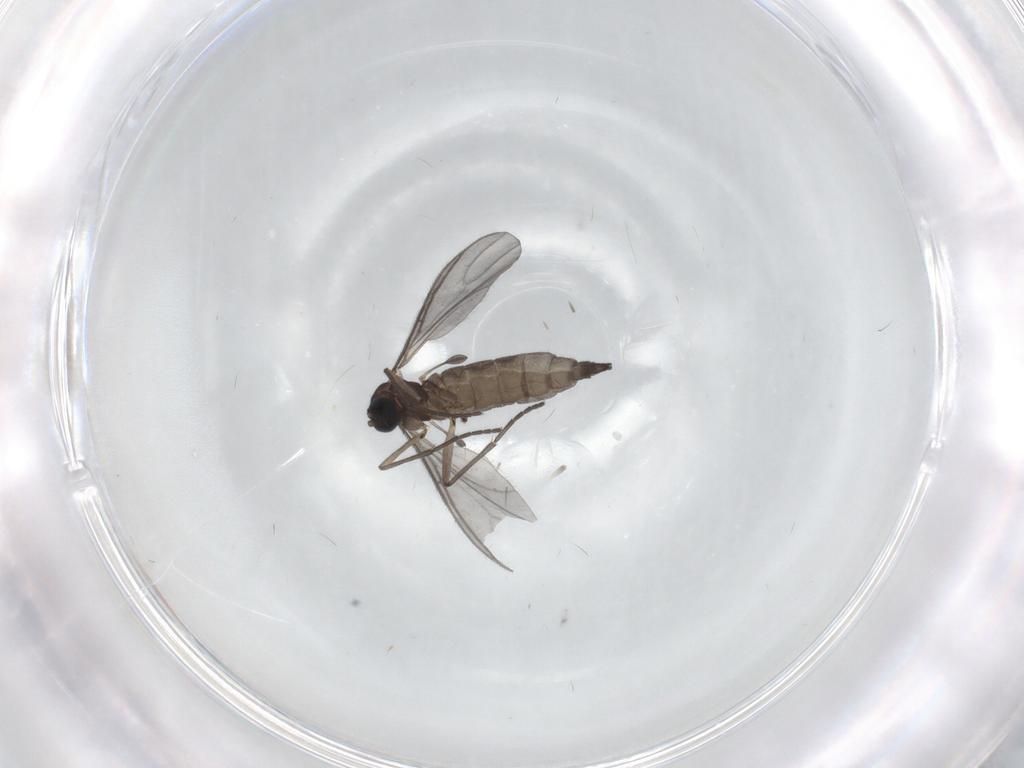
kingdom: Animalia
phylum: Arthropoda
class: Insecta
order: Diptera
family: Sciaridae
